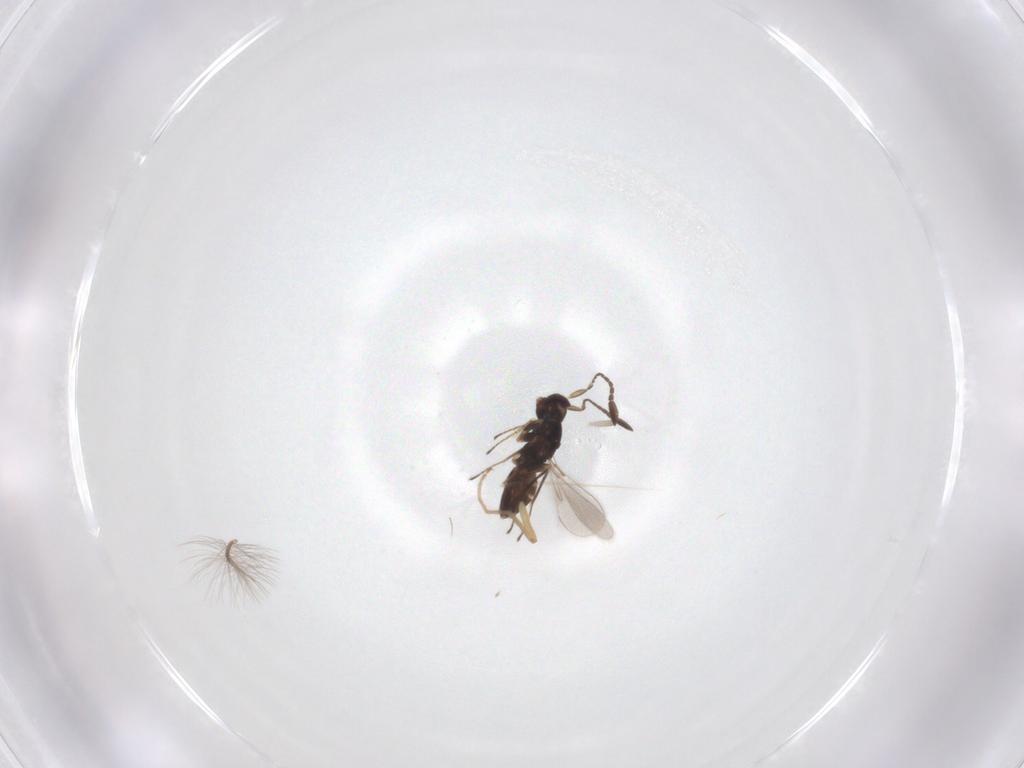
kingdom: Animalia
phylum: Arthropoda
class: Insecta
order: Hymenoptera
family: Mymaridae
